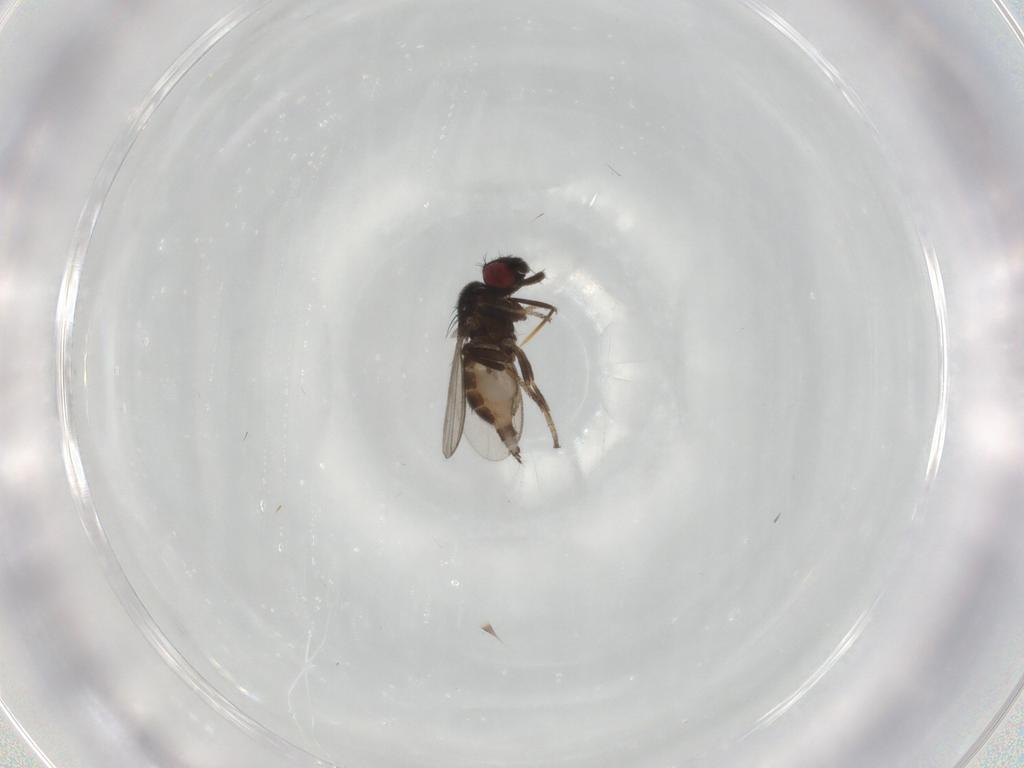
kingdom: Animalia
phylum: Arthropoda
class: Insecta
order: Diptera
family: Milichiidae
